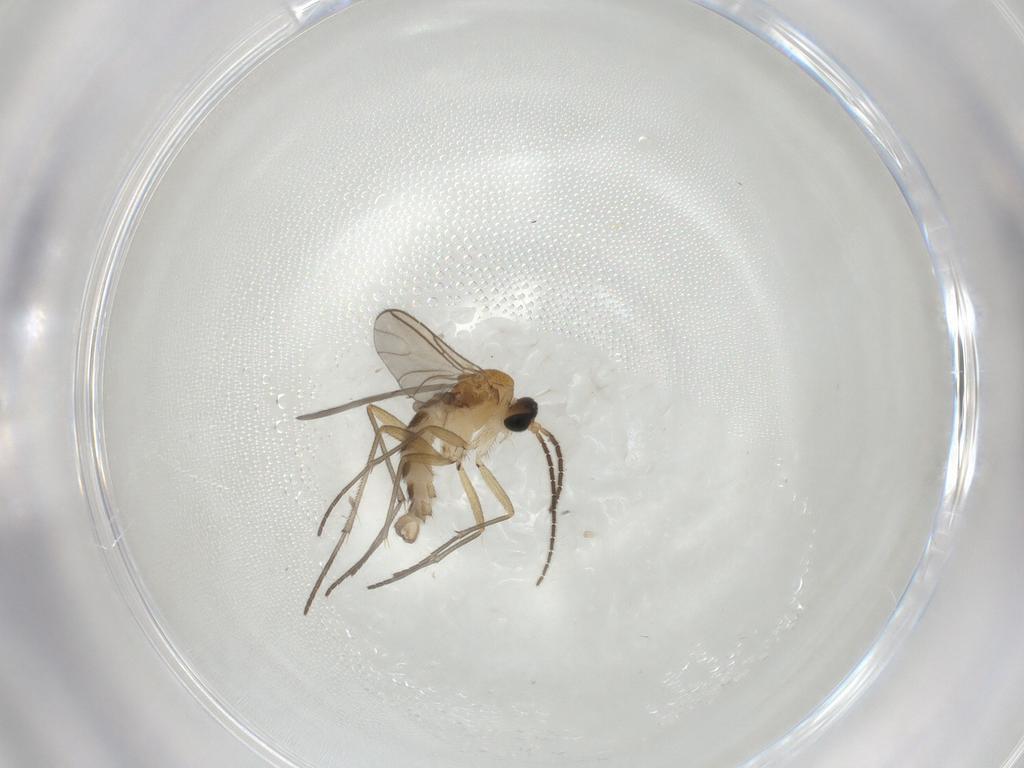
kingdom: Animalia
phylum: Arthropoda
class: Insecta
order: Diptera
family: Sciaridae
